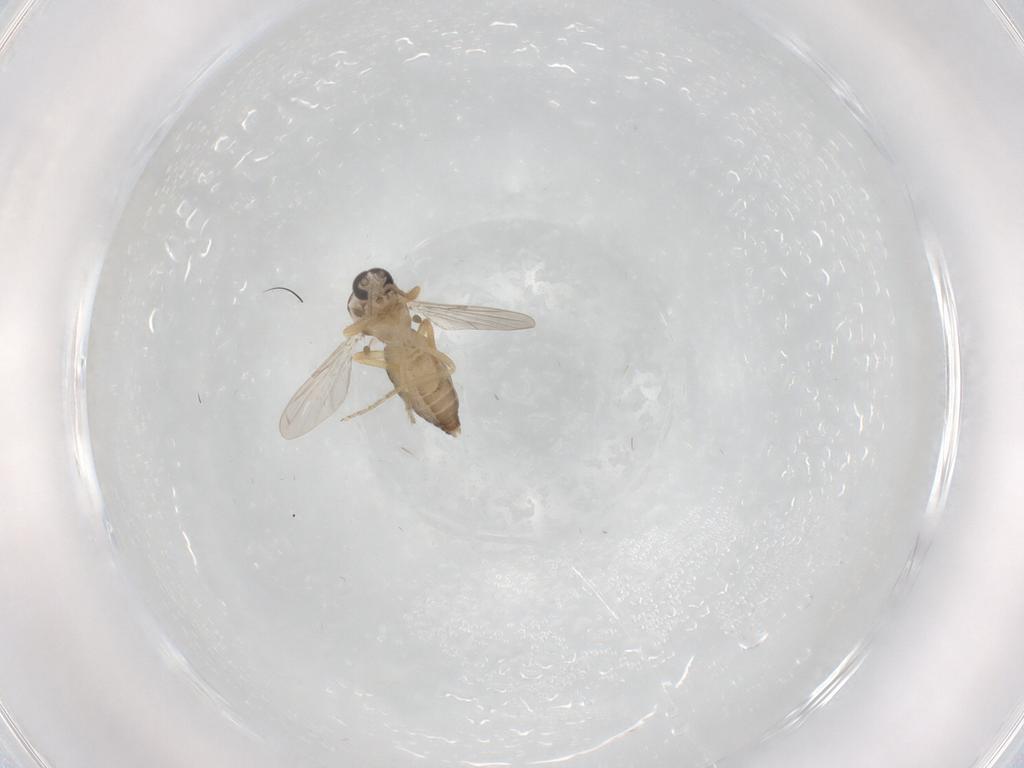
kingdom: Animalia
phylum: Arthropoda
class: Insecta
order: Diptera
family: Ceratopogonidae
